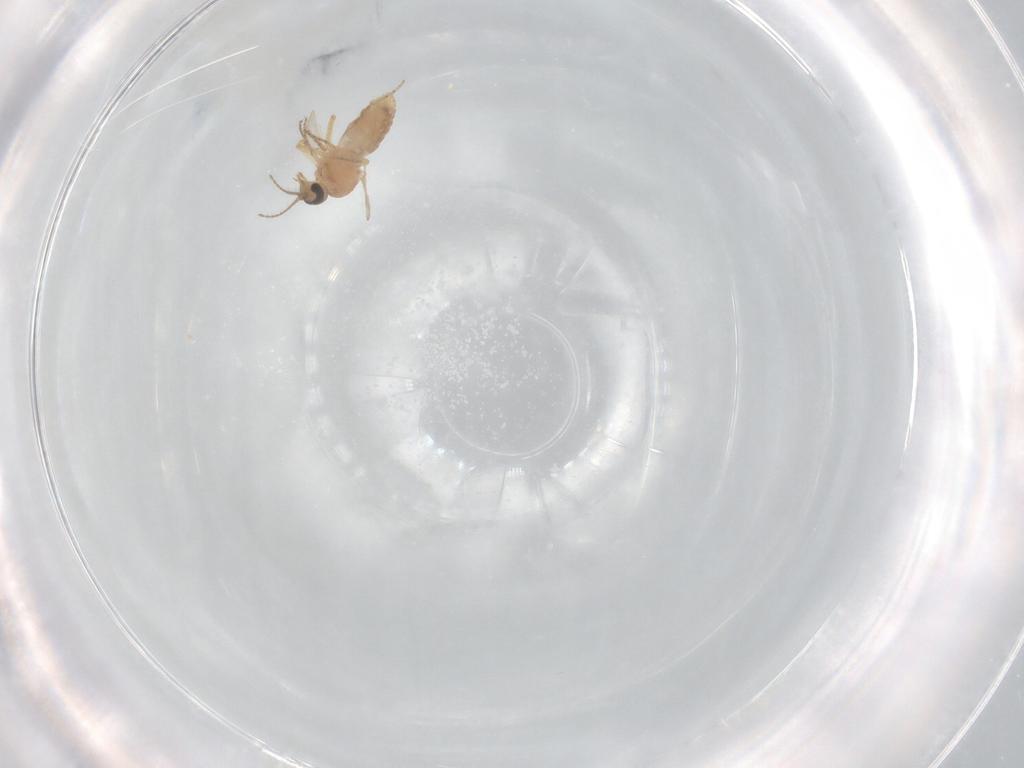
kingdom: Animalia
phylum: Arthropoda
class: Insecta
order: Diptera
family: Ceratopogonidae
